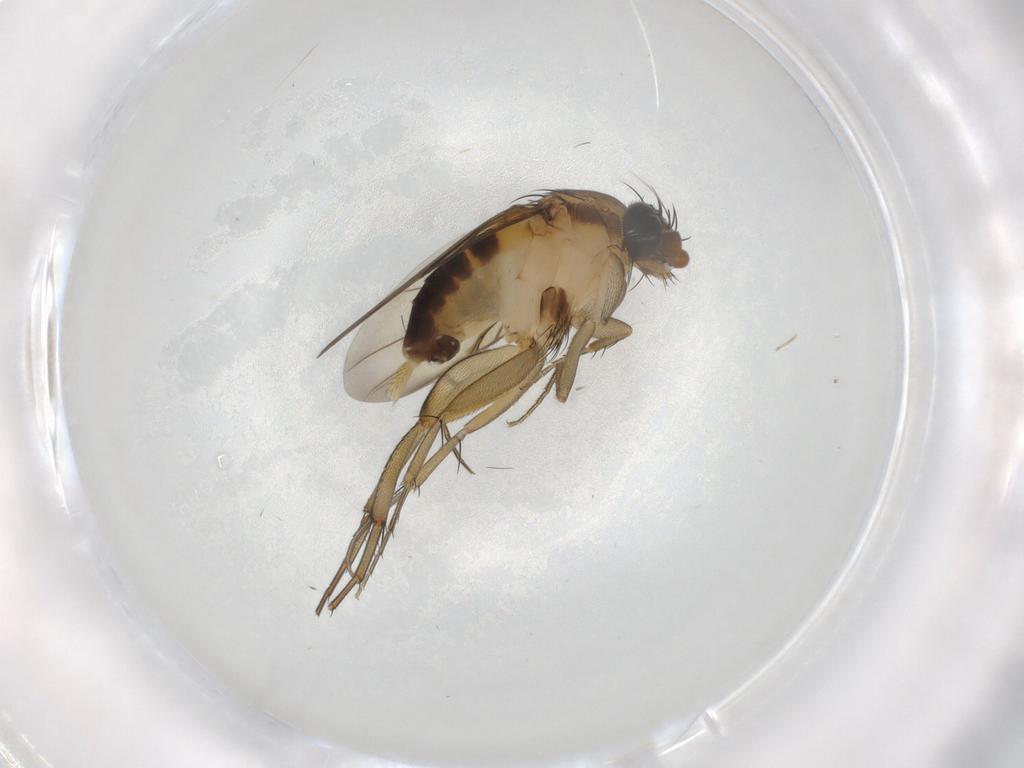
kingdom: Animalia
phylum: Arthropoda
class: Insecta
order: Diptera
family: Phoridae
